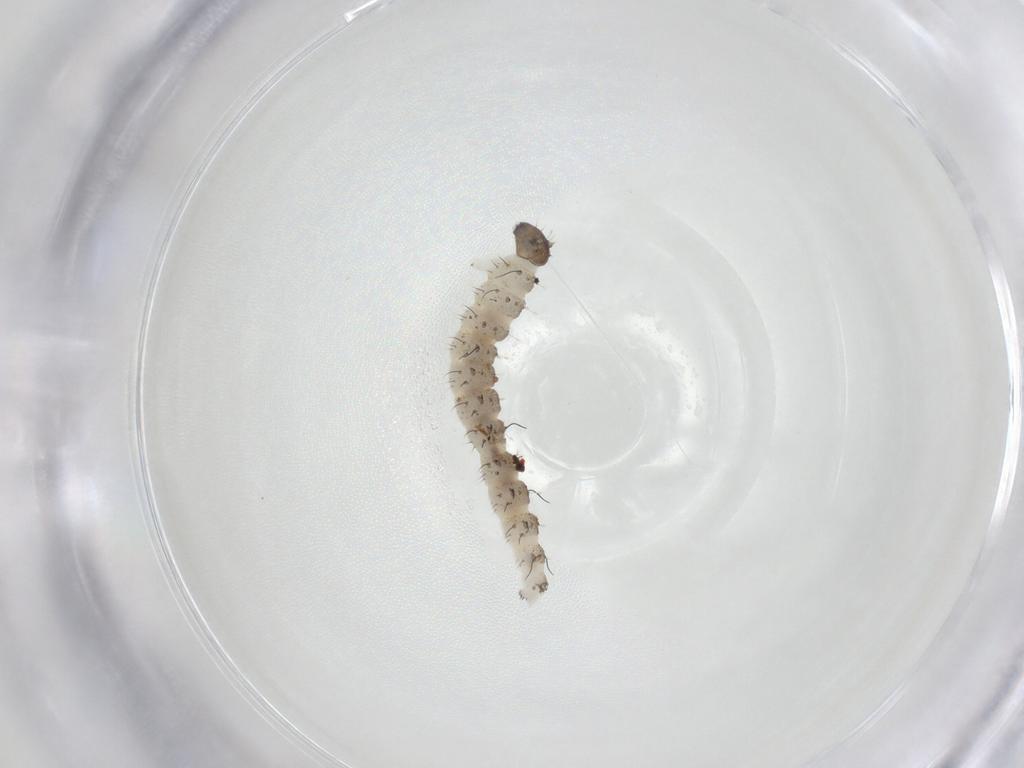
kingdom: Animalia
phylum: Arthropoda
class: Insecta
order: Diptera
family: Ceratopogonidae
